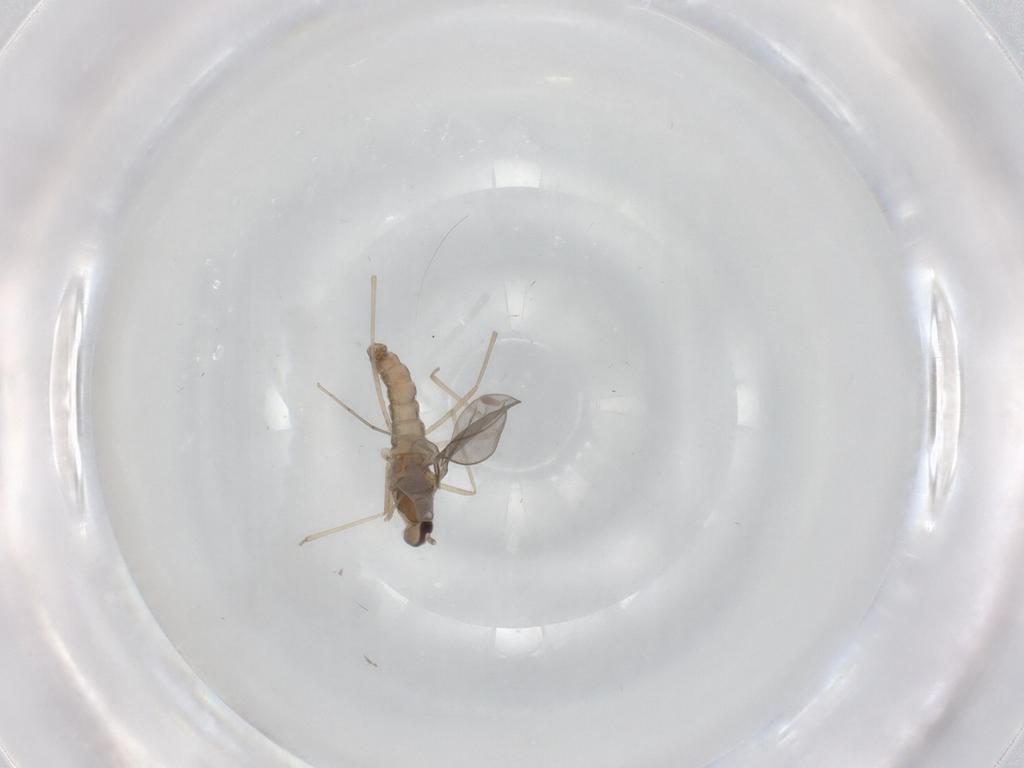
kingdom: Animalia
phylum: Arthropoda
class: Insecta
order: Diptera
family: Cecidomyiidae
